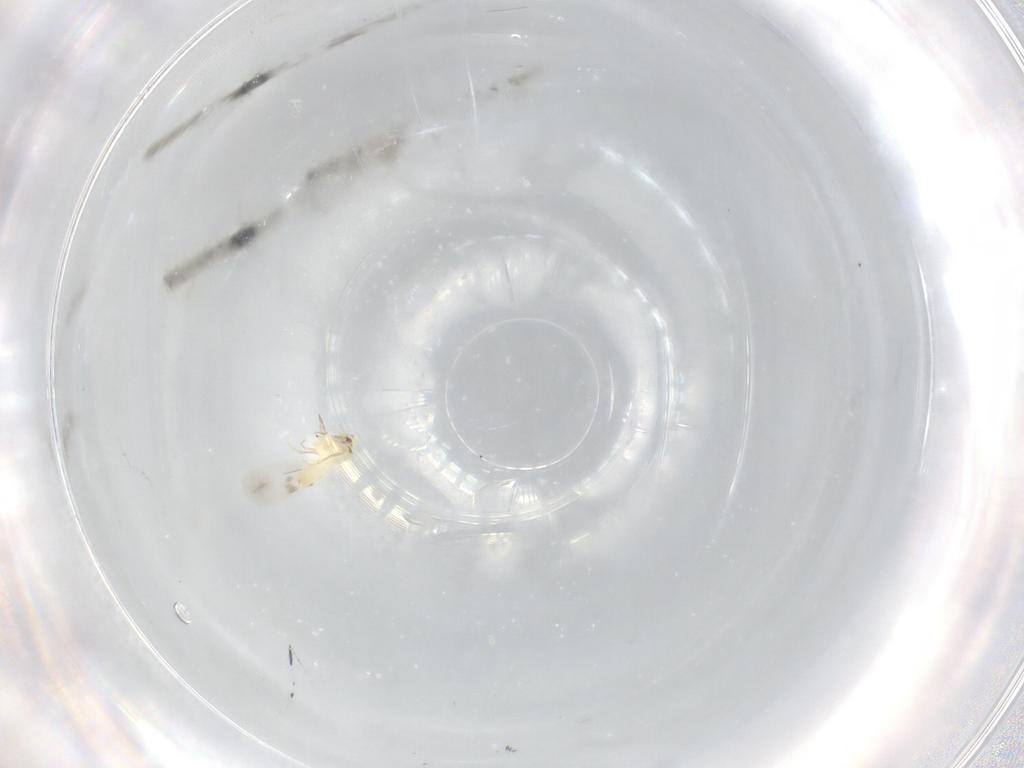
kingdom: Animalia
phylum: Arthropoda
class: Insecta
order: Hemiptera
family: Aleyrodidae
